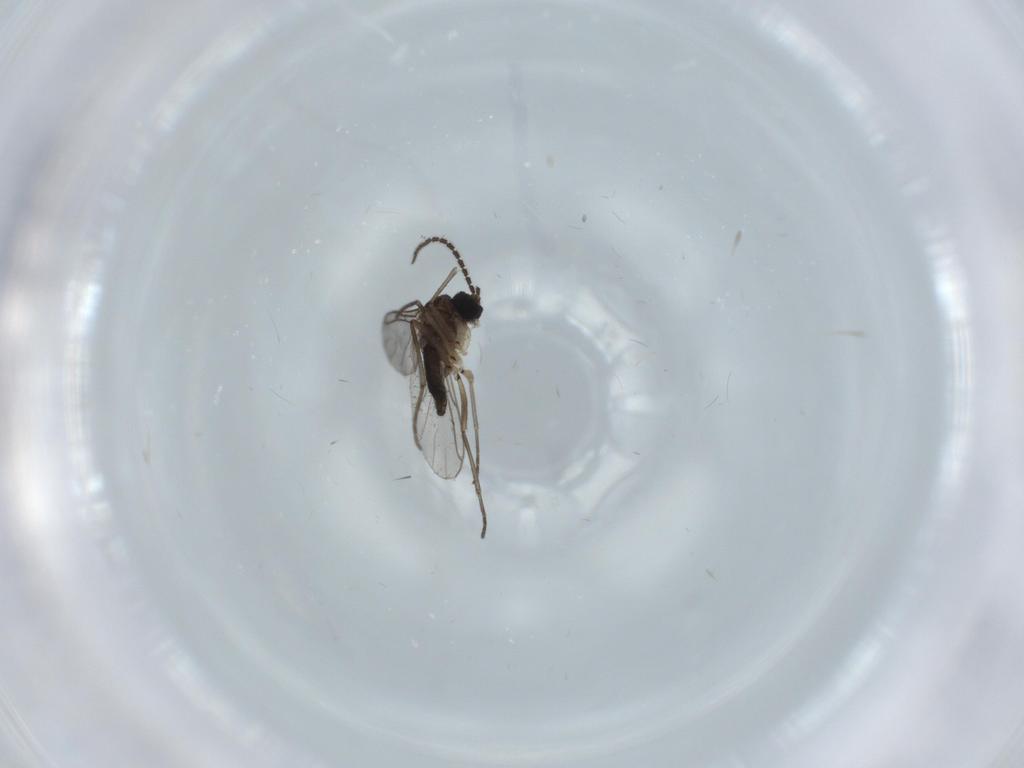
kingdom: Animalia
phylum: Arthropoda
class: Insecta
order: Diptera
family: Sciaridae
